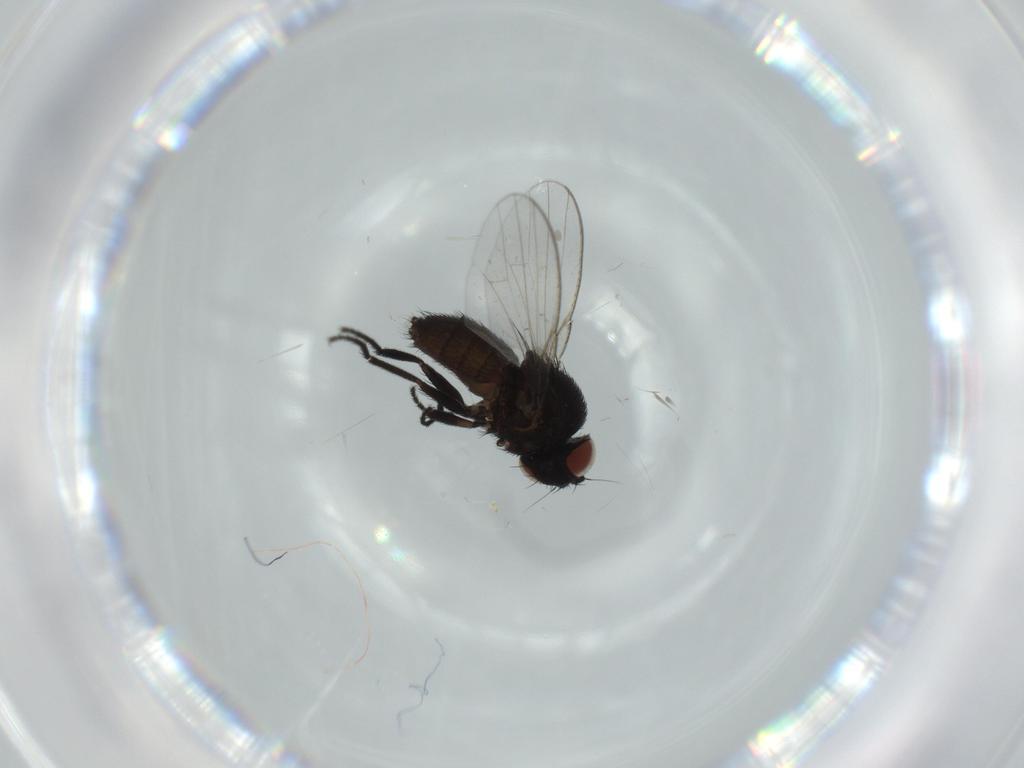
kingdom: Animalia
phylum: Arthropoda
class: Insecta
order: Diptera
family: Milichiidae
